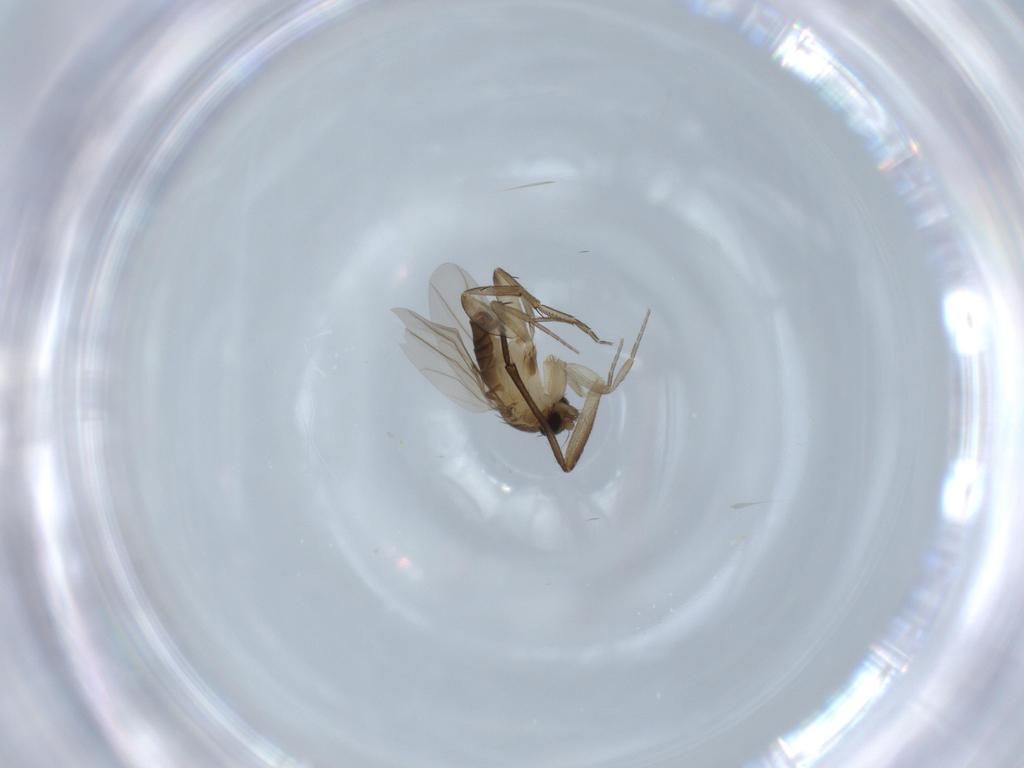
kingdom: Animalia
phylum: Arthropoda
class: Insecta
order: Diptera
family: Phoridae
